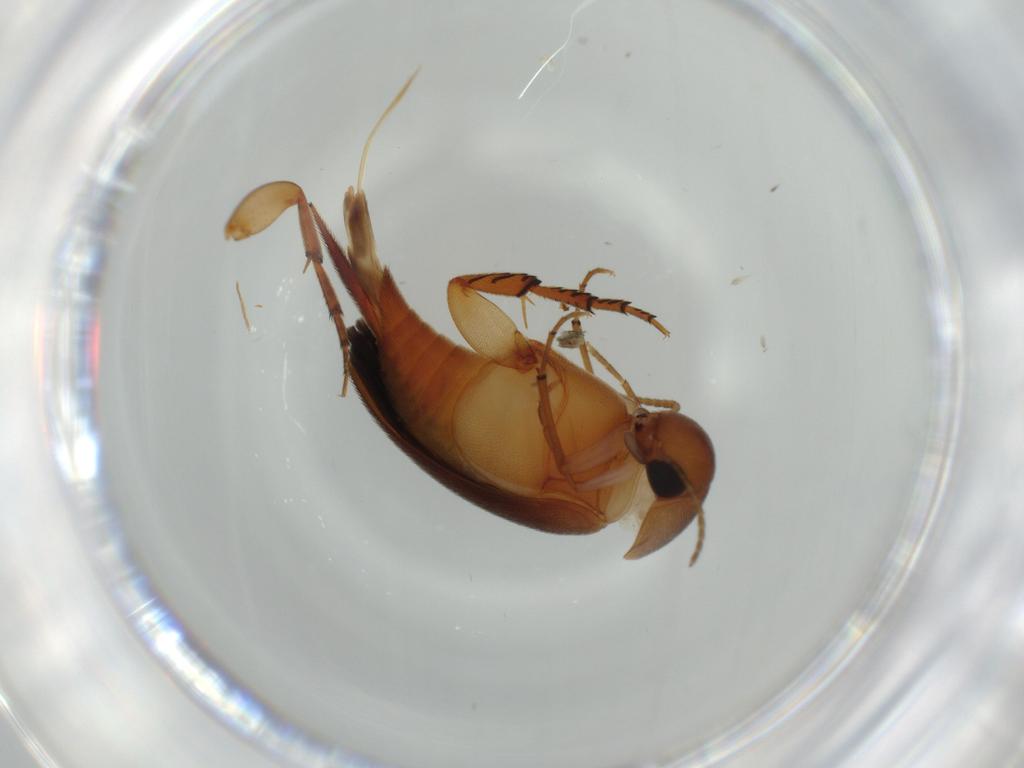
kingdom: Animalia
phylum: Arthropoda
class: Insecta
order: Coleoptera
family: Mordellidae
